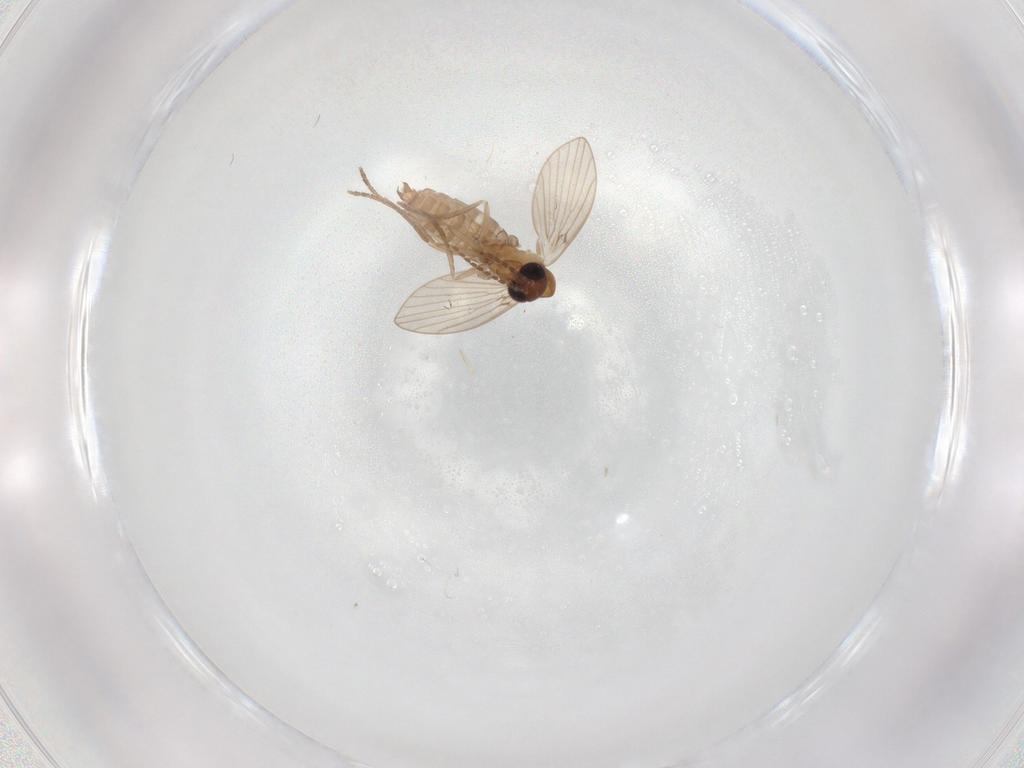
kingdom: Animalia
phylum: Arthropoda
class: Insecta
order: Diptera
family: Dolichopodidae
